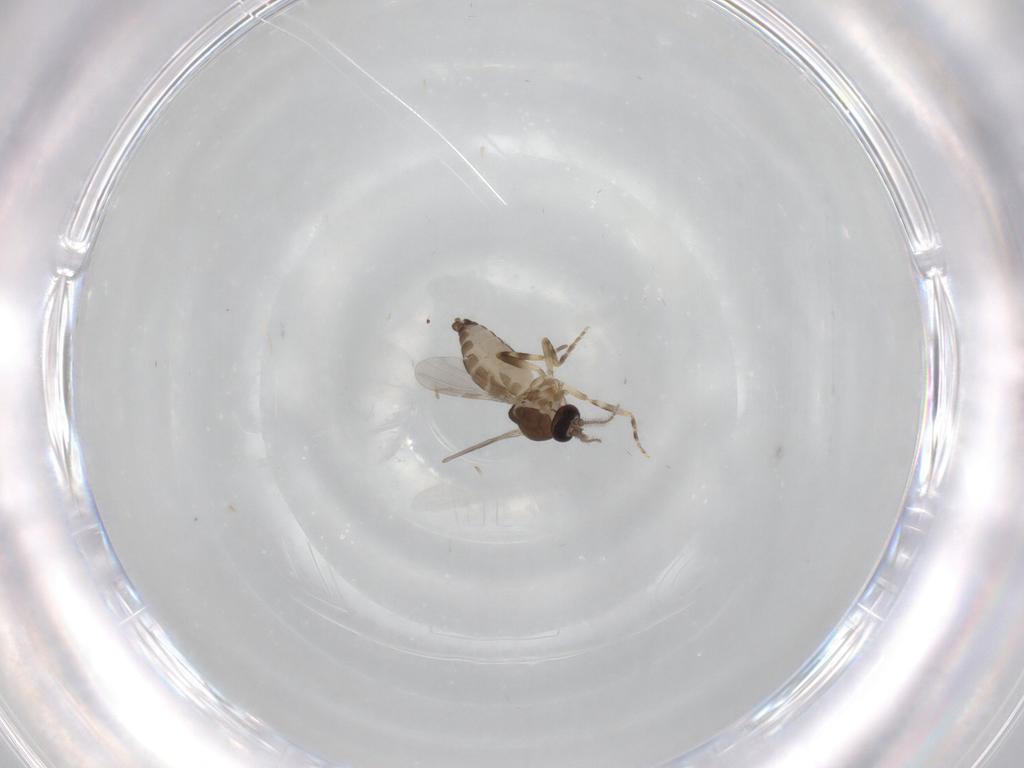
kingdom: Animalia
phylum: Arthropoda
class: Insecta
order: Diptera
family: Ceratopogonidae
